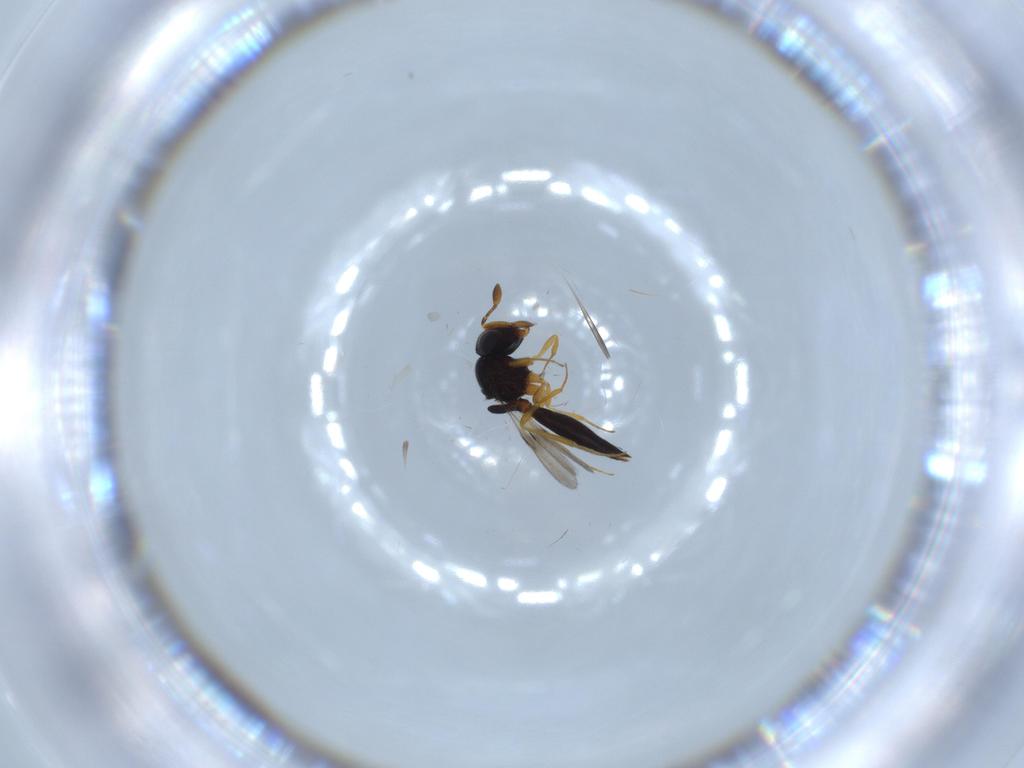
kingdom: Animalia
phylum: Arthropoda
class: Insecta
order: Hymenoptera
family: Scelionidae
